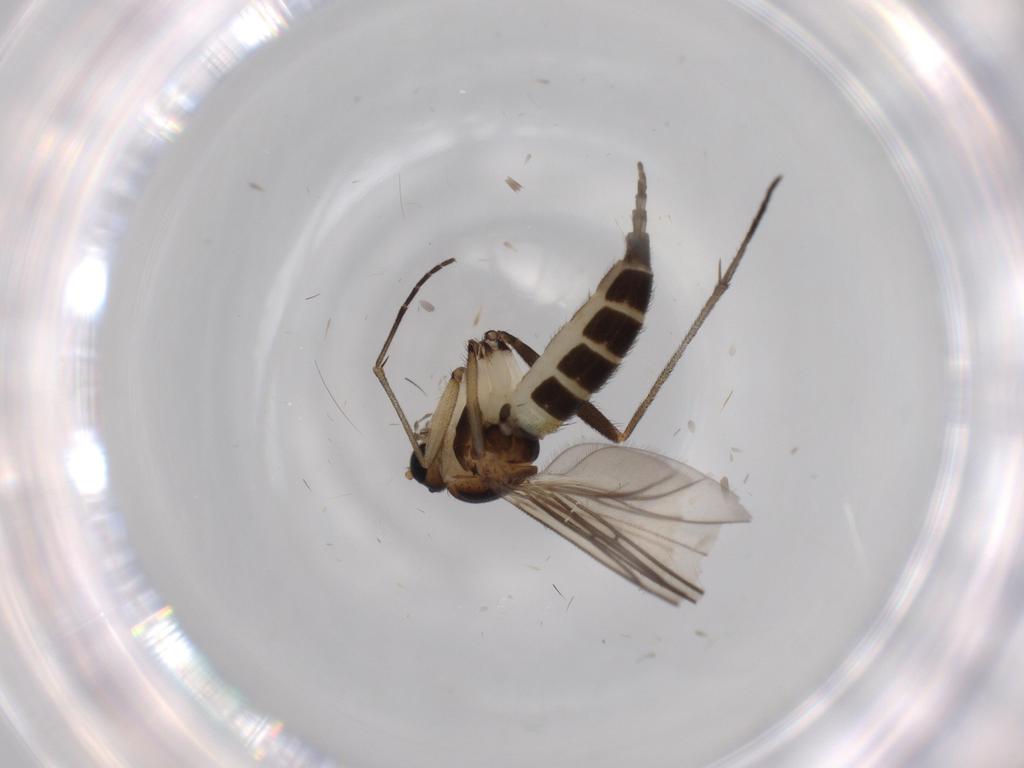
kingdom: Animalia
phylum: Arthropoda
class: Insecta
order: Diptera
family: Sciaridae
